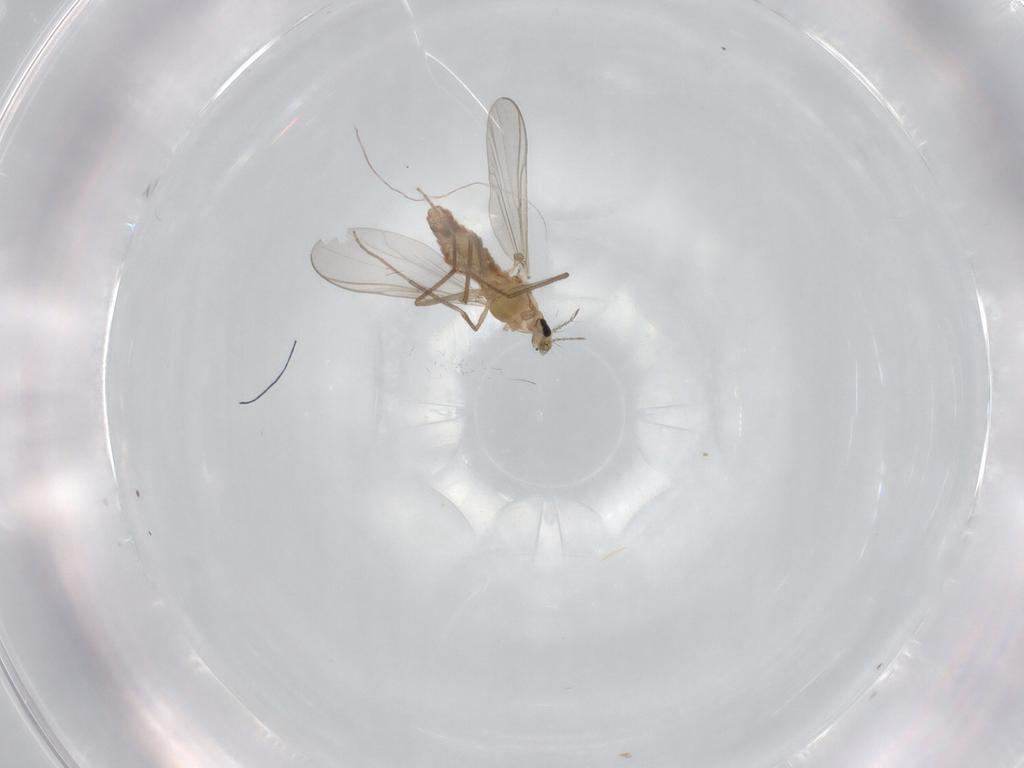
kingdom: Animalia
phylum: Arthropoda
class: Insecta
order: Diptera
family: Chironomidae
